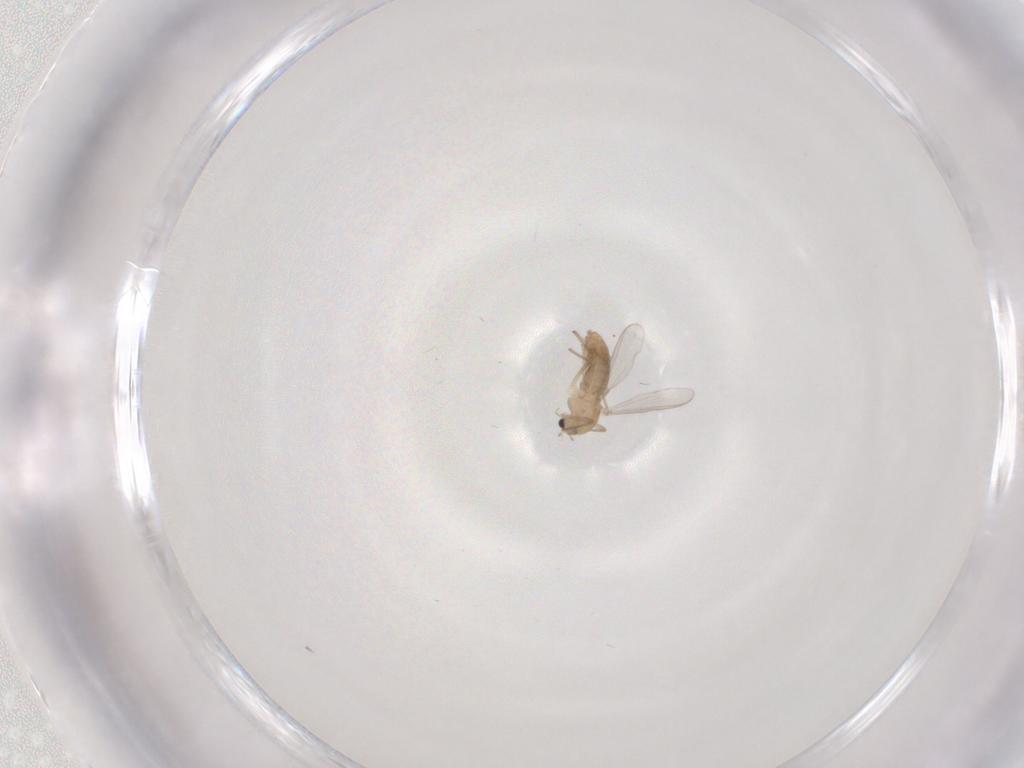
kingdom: Animalia
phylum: Arthropoda
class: Insecta
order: Diptera
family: Chironomidae
